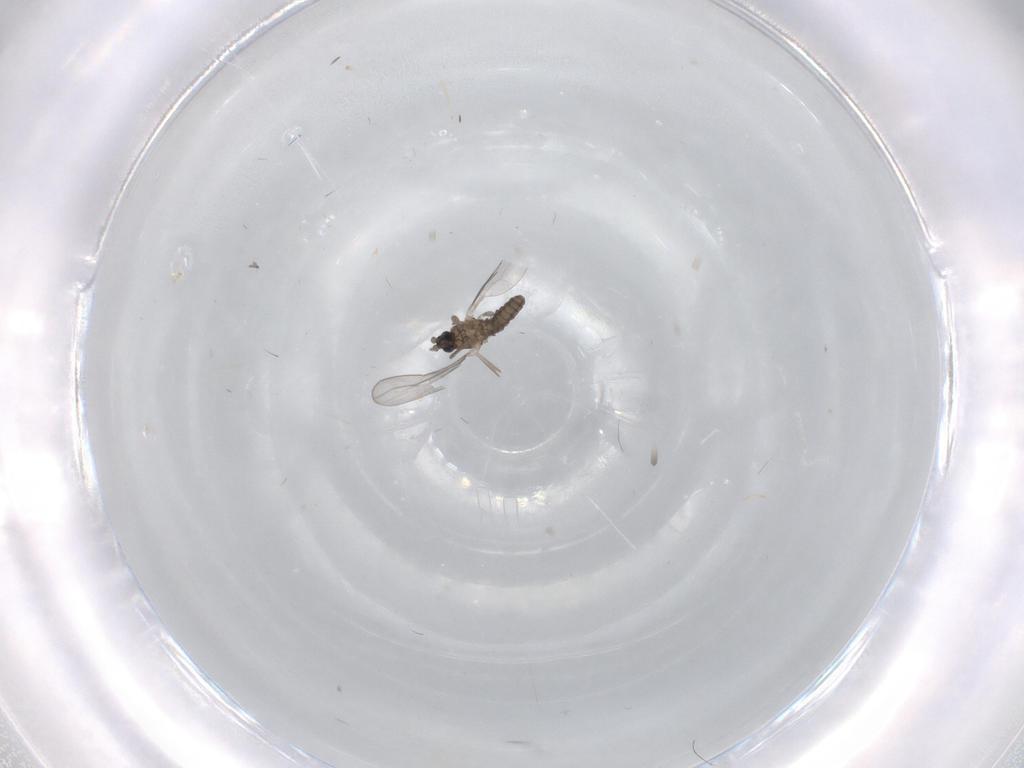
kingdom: Animalia
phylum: Arthropoda
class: Insecta
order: Diptera
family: Cecidomyiidae
